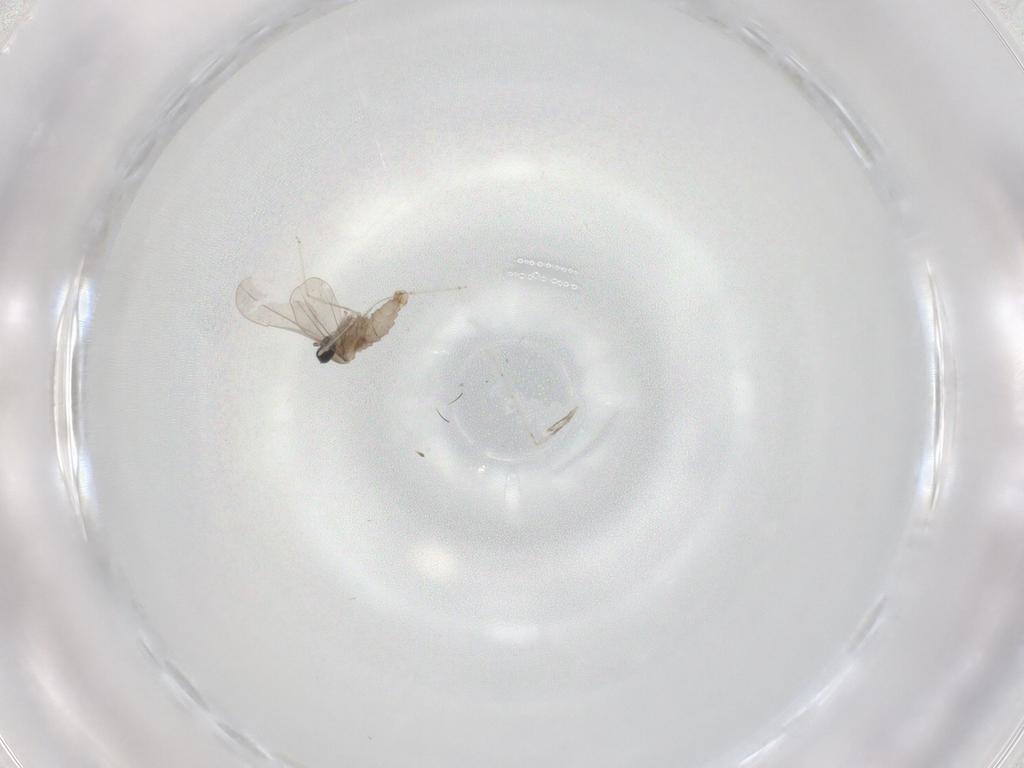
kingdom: Animalia
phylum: Arthropoda
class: Insecta
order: Diptera
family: Cecidomyiidae
